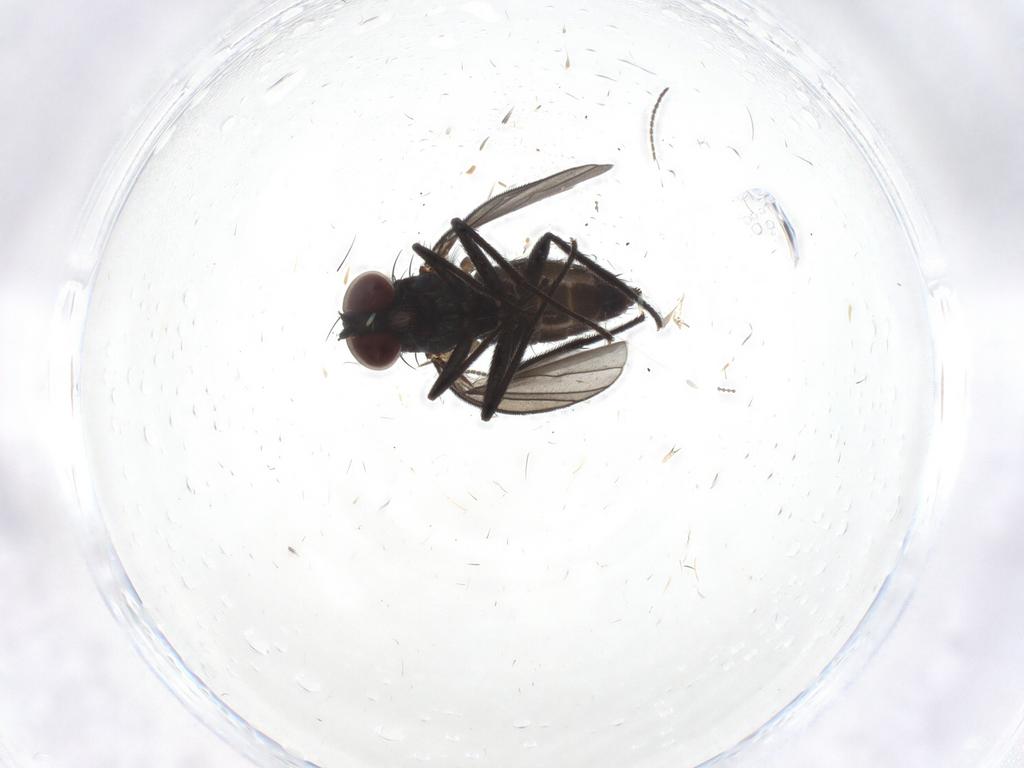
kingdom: Animalia
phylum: Arthropoda
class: Insecta
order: Diptera
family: Sciaridae
